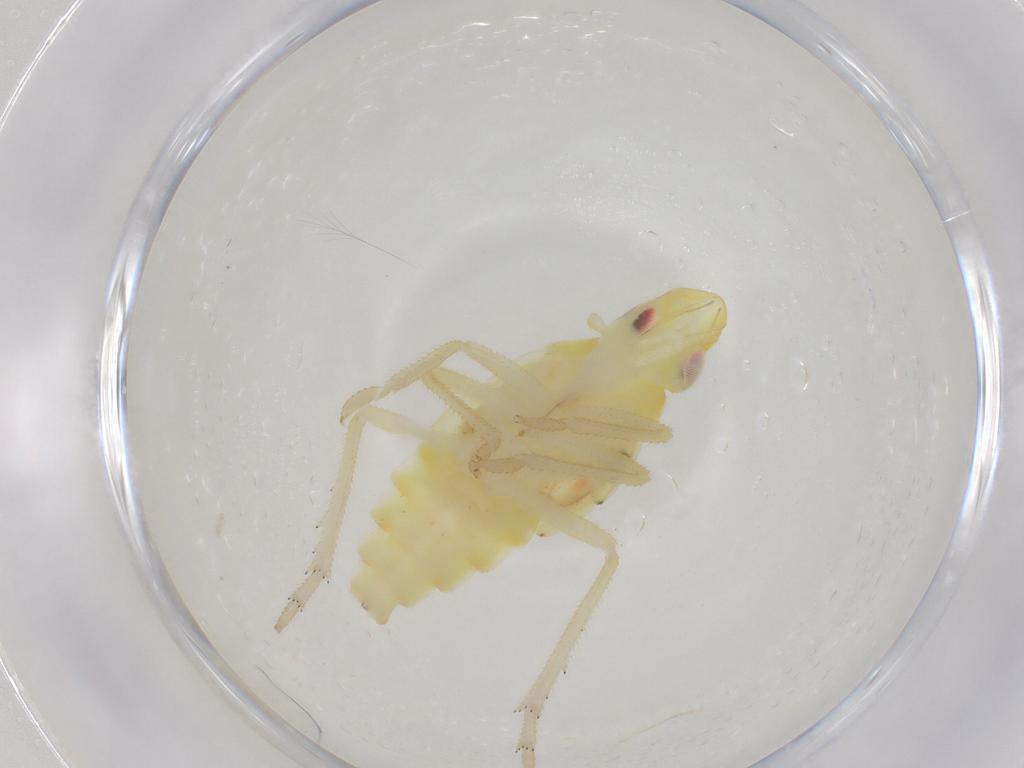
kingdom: Animalia
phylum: Arthropoda
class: Insecta
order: Hemiptera
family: Tropiduchidae
